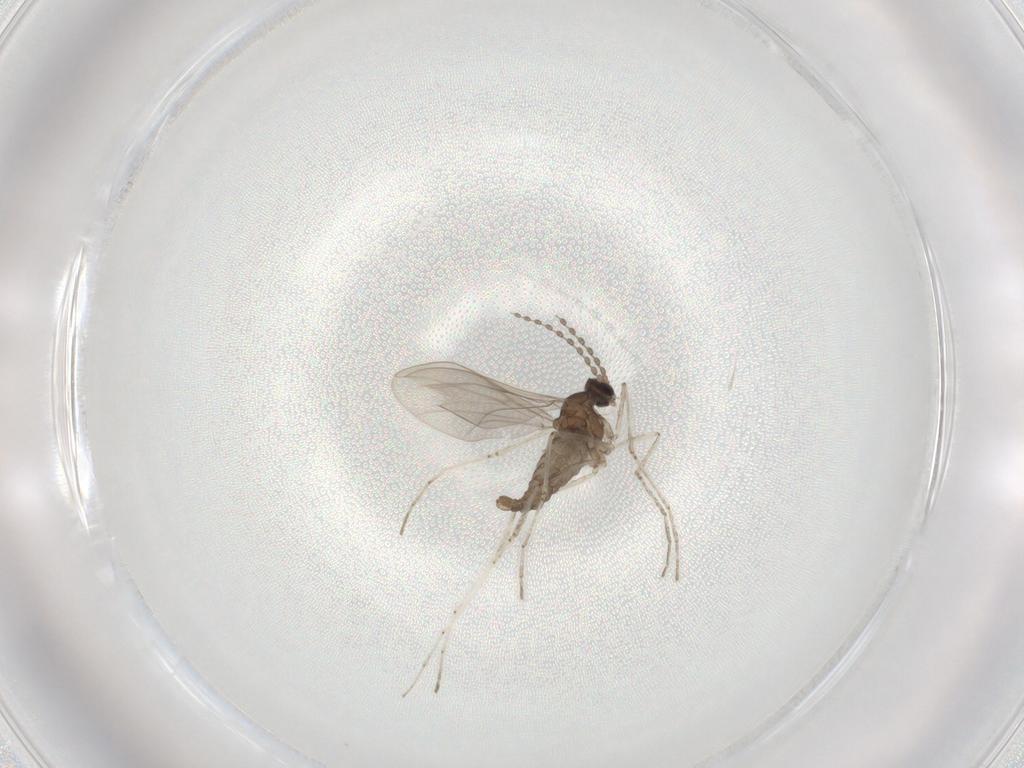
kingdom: Animalia
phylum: Arthropoda
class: Insecta
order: Diptera
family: Cecidomyiidae
